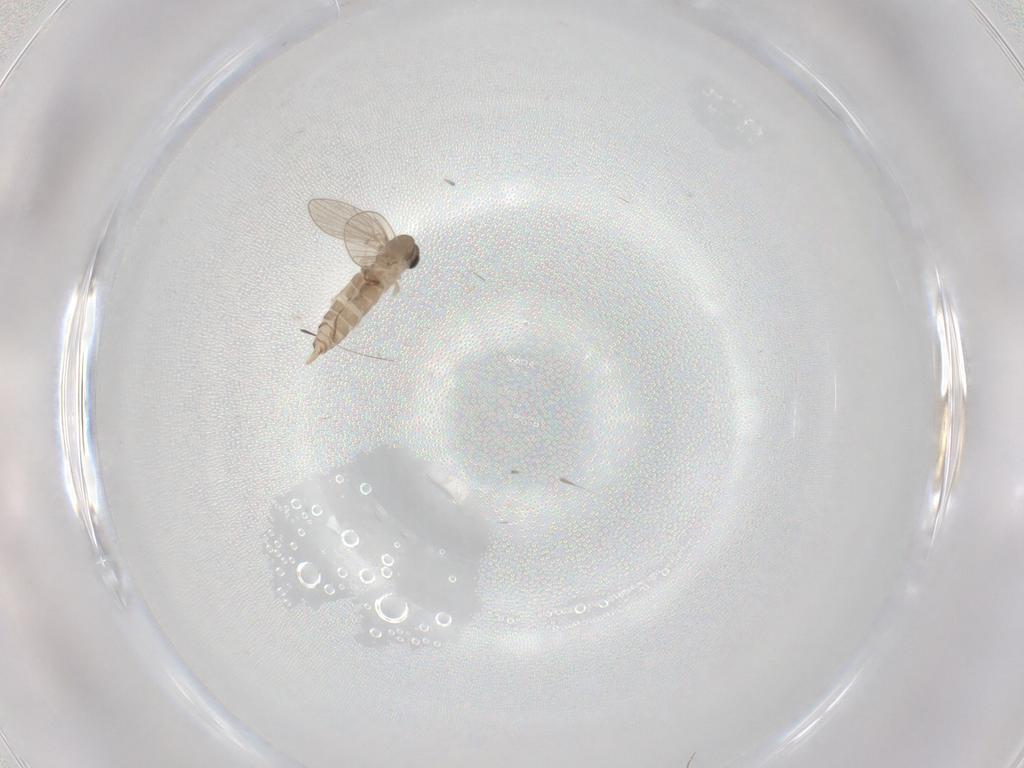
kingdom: Animalia
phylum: Arthropoda
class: Insecta
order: Diptera
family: Psychodidae
